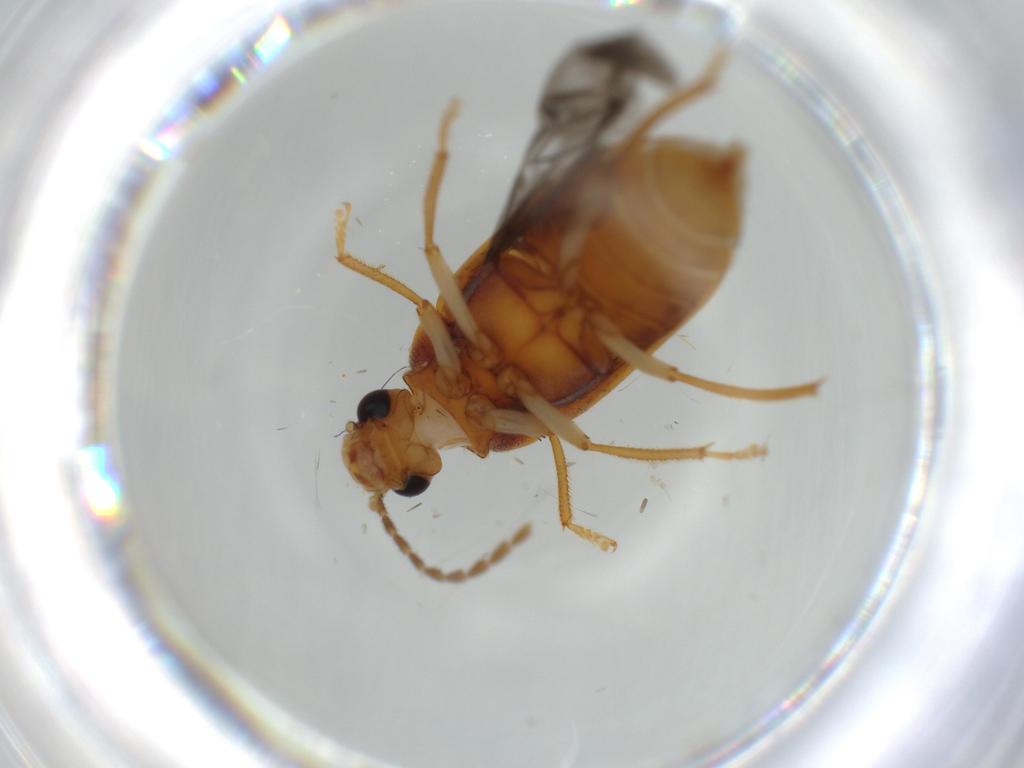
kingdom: Animalia
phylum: Arthropoda
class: Insecta
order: Coleoptera
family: Chrysomelidae
